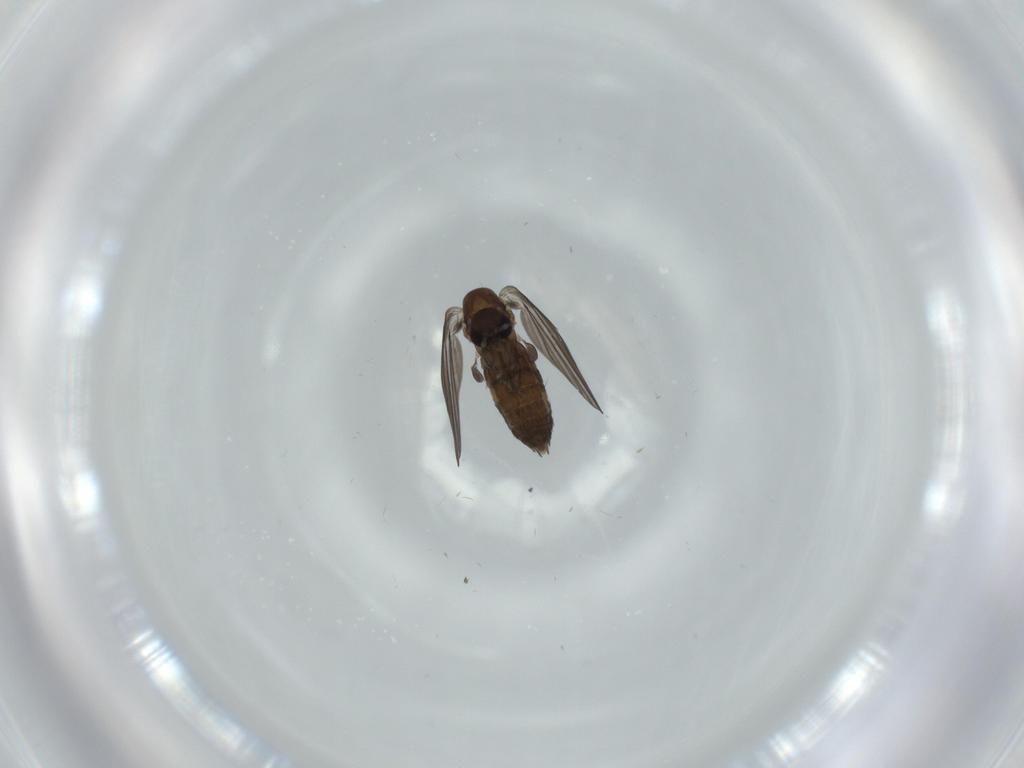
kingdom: Animalia
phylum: Arthropoda
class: Insecta
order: Diptera
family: Psychodidae
